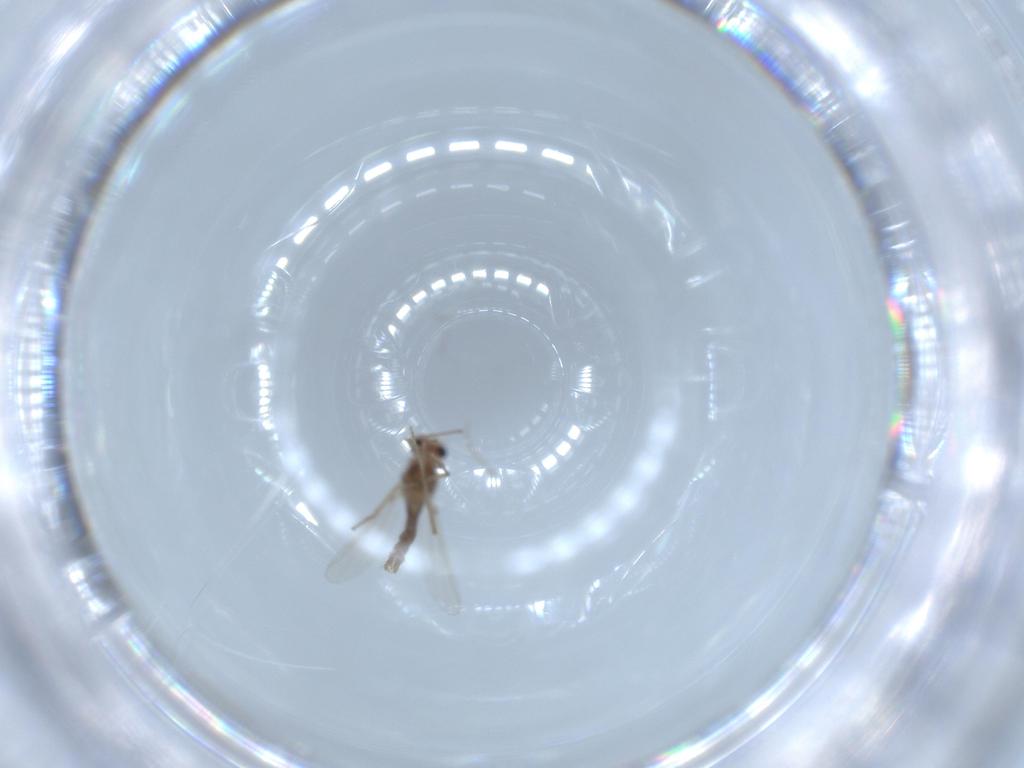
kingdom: Animalia
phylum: Arthropoda
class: Insecta
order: Diptera
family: Chironomidae
